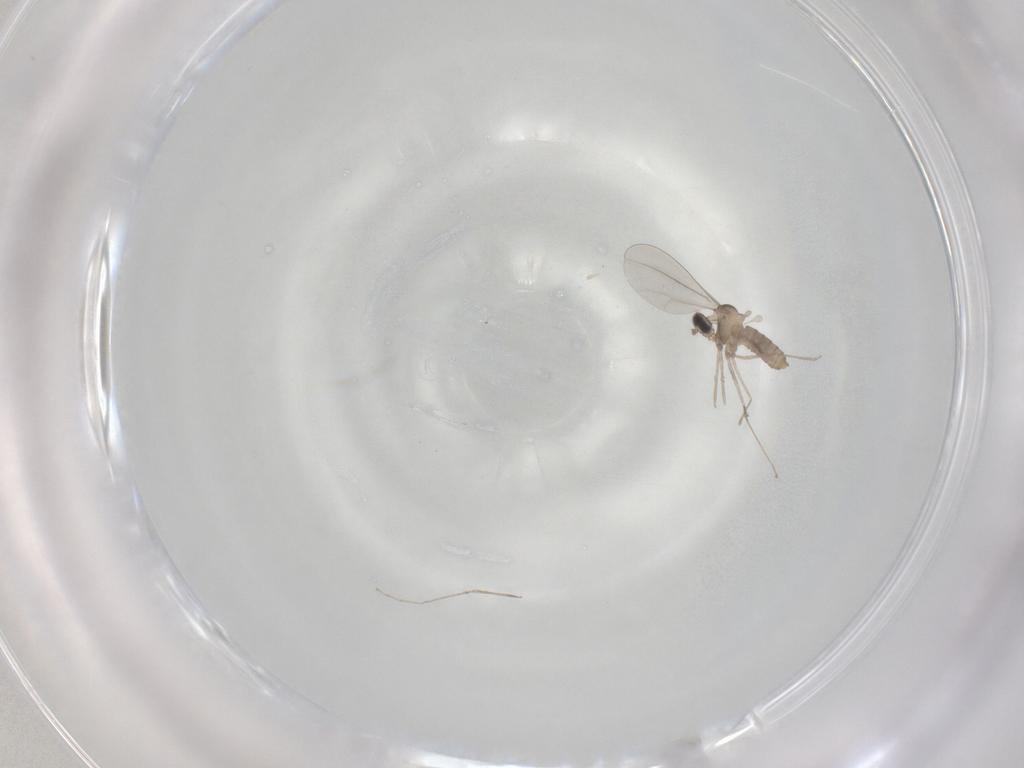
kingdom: Animalia
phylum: Arthropoda
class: Insecta
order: Diptera
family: Cecidomyiidae
